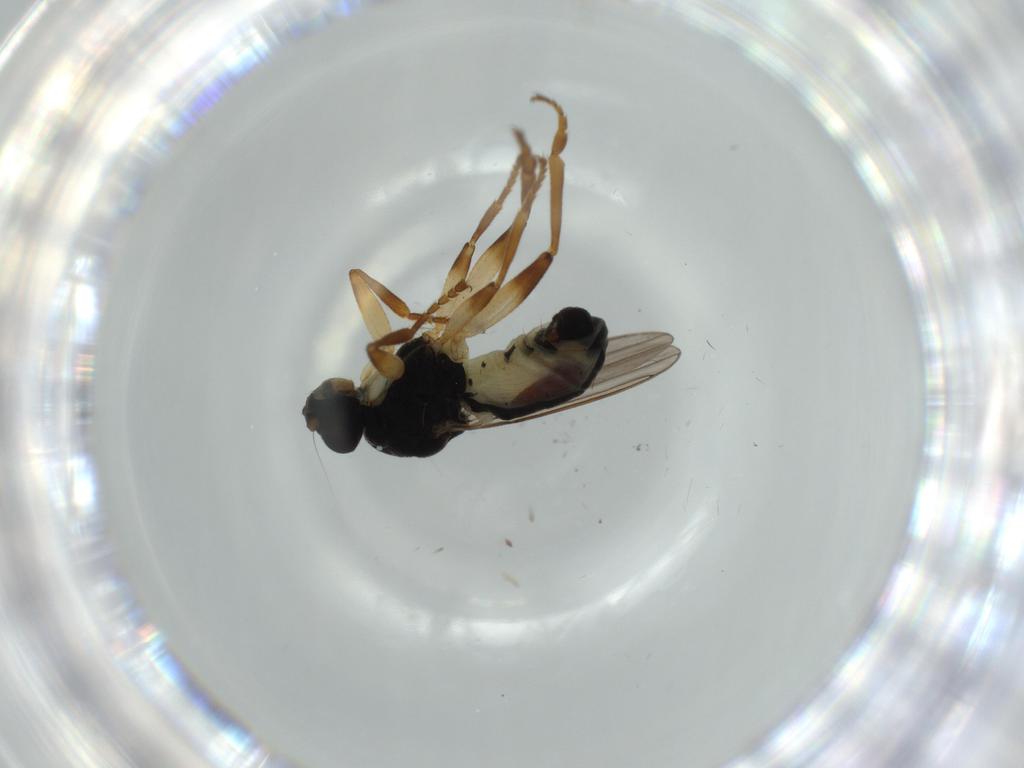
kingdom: Animalia
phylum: Arthropoda
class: Insecta
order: Diptera
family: Sphaeroceridae
